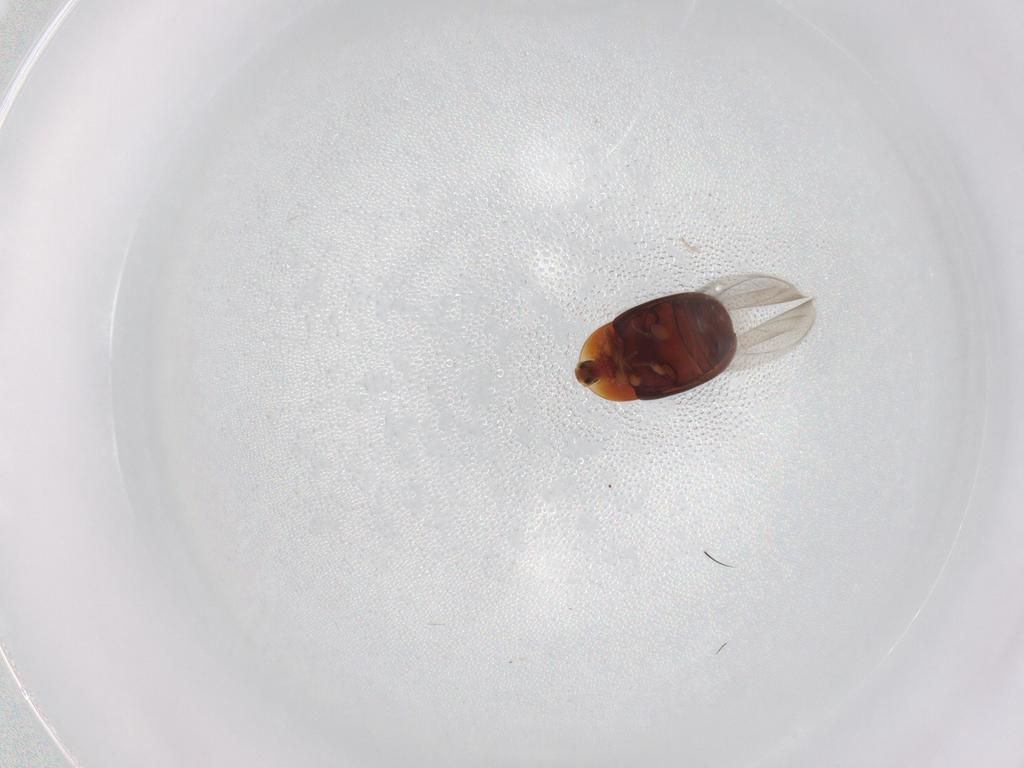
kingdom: Animalia
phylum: Arthropoda
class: Insecta
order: Coleoptera
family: Corylophidae
